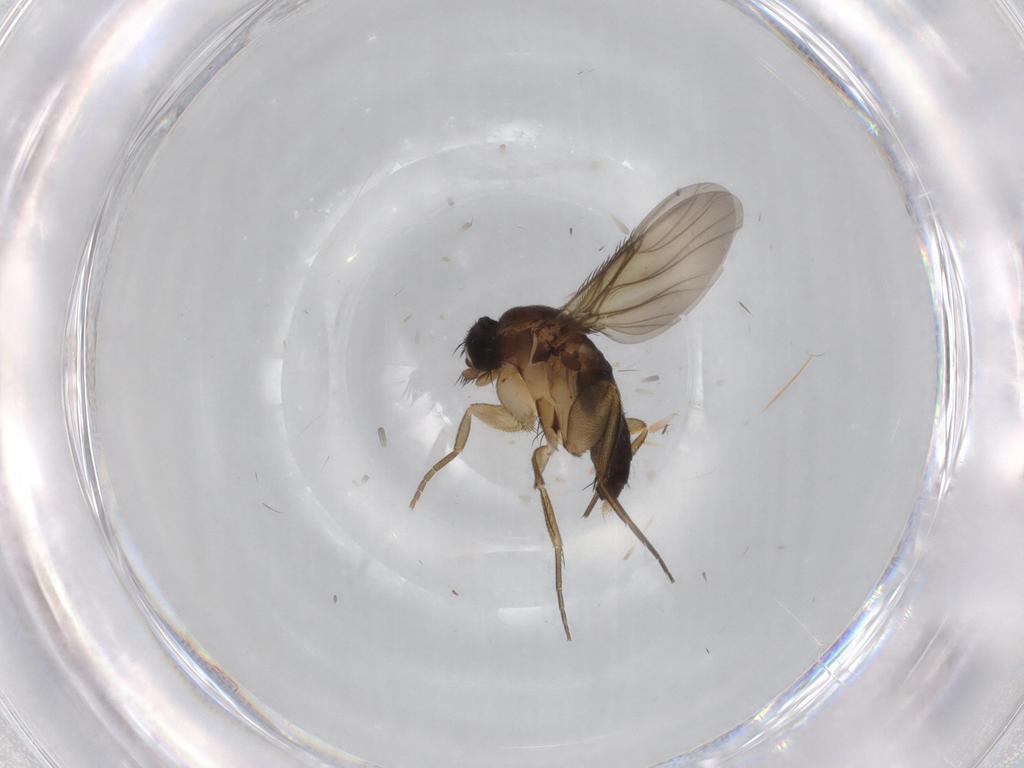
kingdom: Animalia
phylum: Arthropoda
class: Insecta
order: Diptera
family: Phoridae
